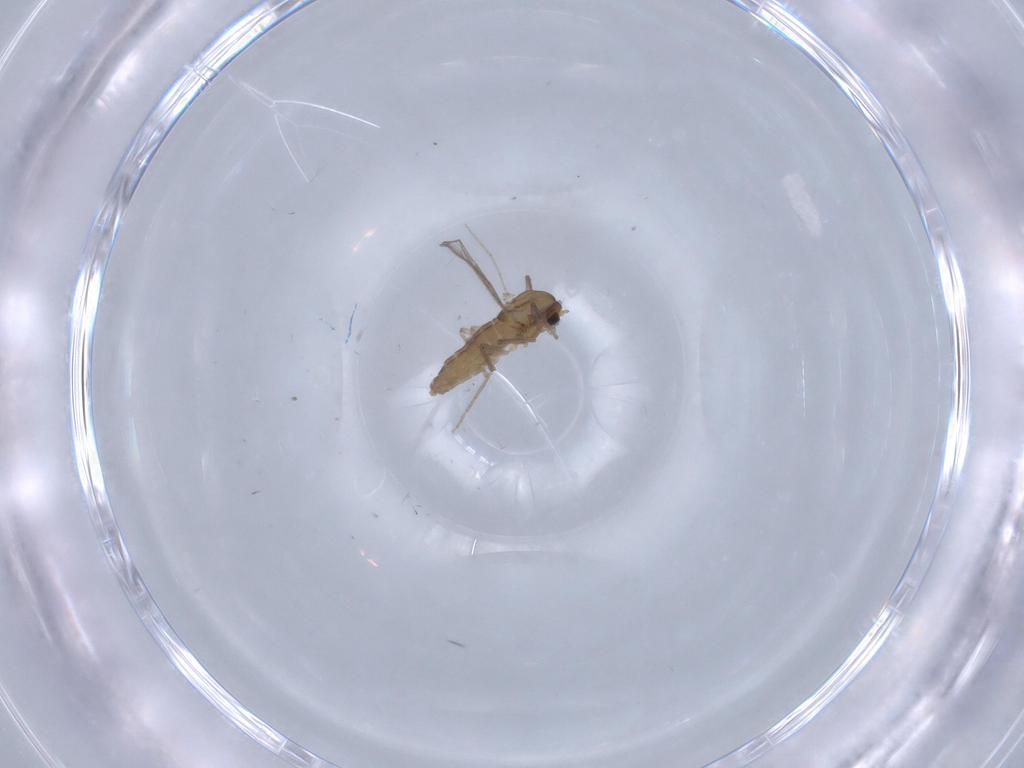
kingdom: Animalia
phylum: Arthropoda
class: Insecta
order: Diptera
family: Chironomidae
